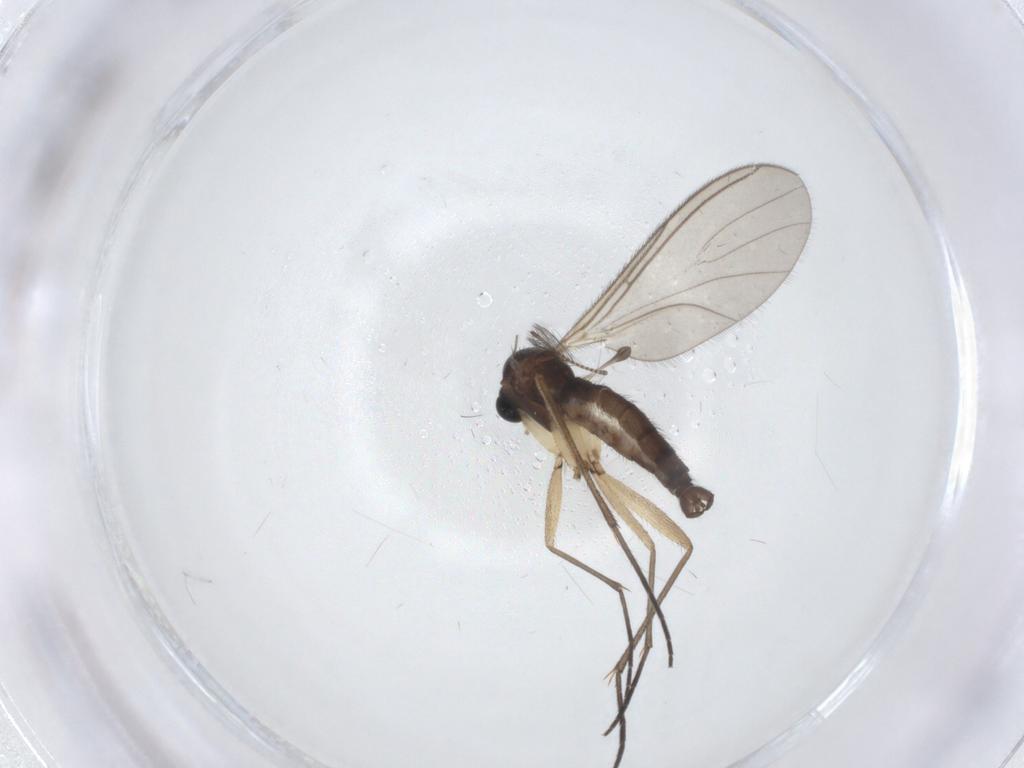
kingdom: Animalia
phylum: Arthropoda
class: Insecta
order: Diptera
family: Sciaridae
